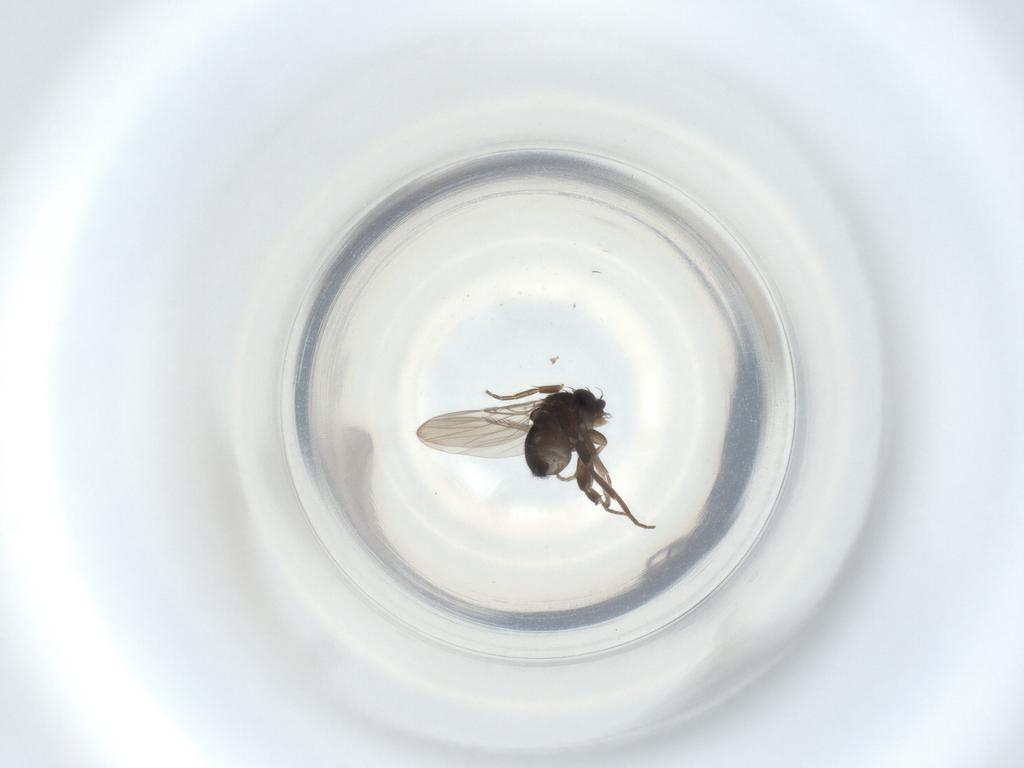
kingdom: Animalia
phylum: Arthropoda
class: Insecta
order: Diptera
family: Phoridae
